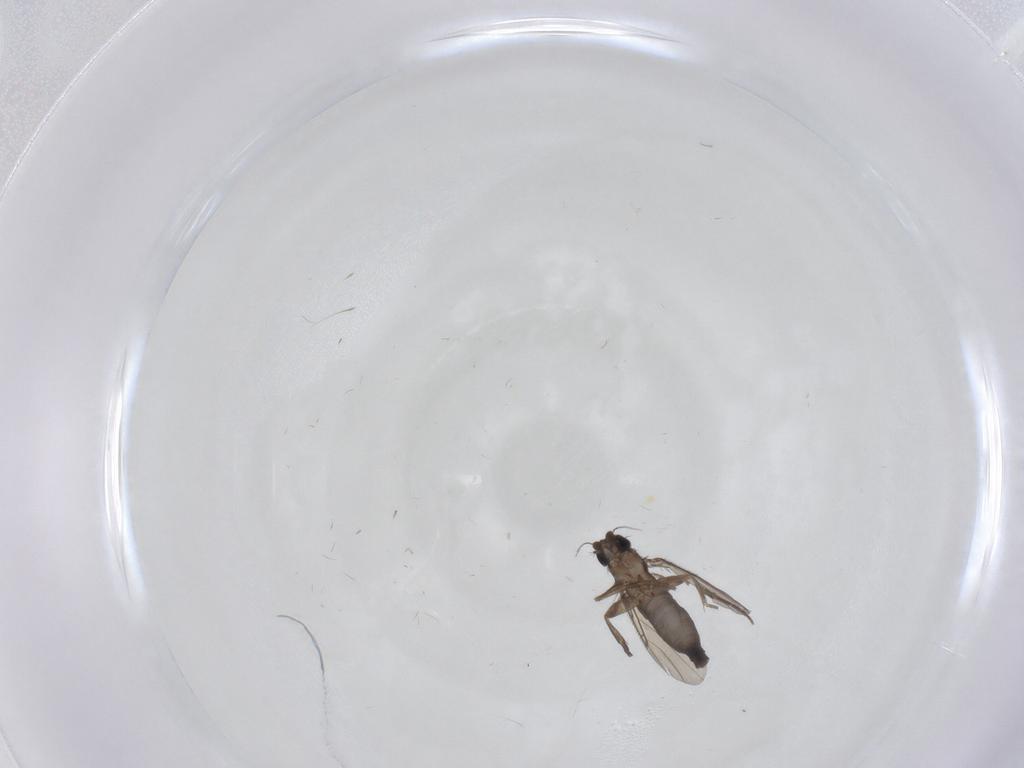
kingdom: Animalia
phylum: Arthropoda
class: Insecta
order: Diptera
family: Phoridae
